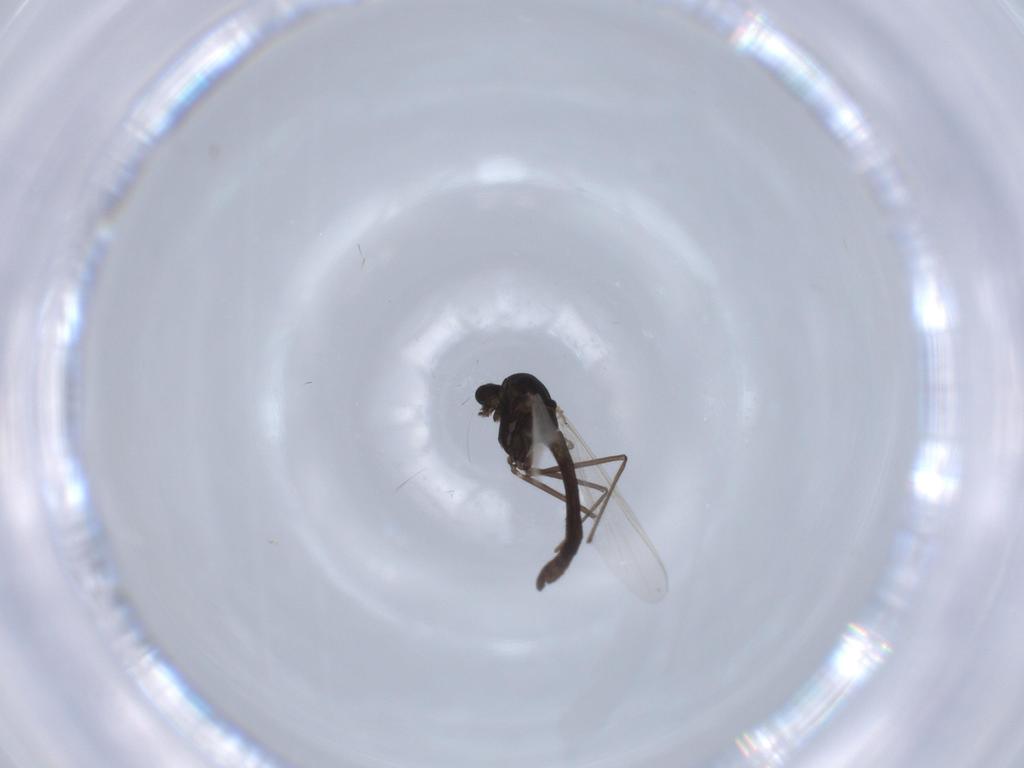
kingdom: Animalia
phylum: Arthropoda
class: Insecta
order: Diptera
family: Chironomidae
